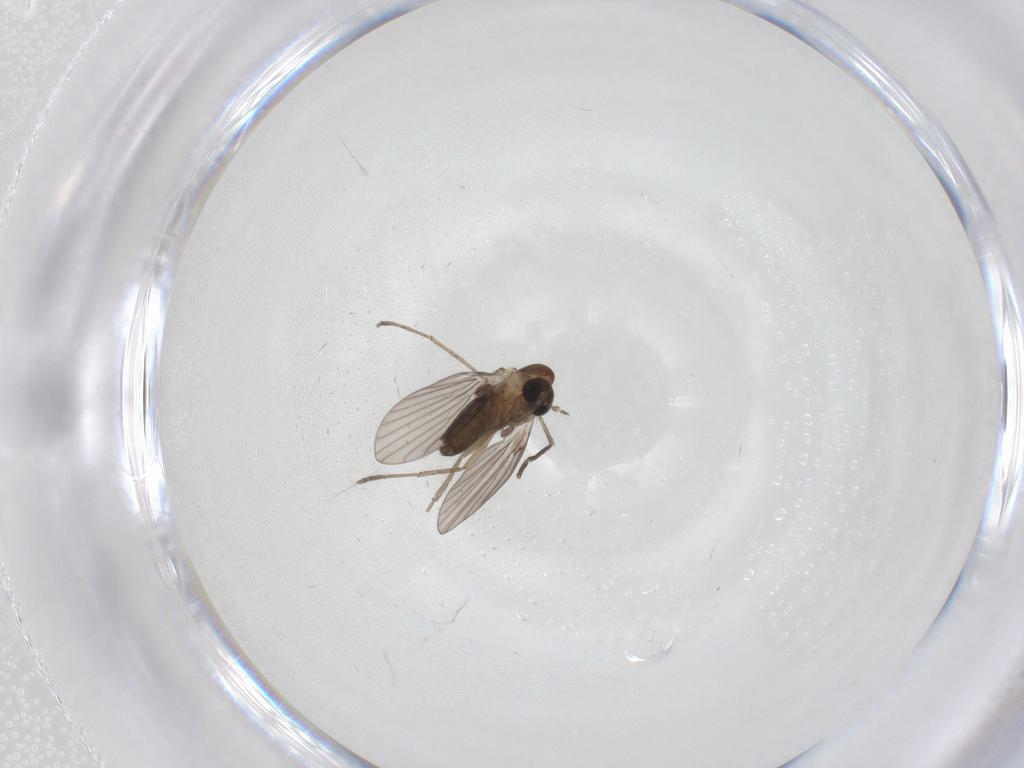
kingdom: Animalia
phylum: Arthropoda
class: Insecta
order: Diptera
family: Psychodidae
